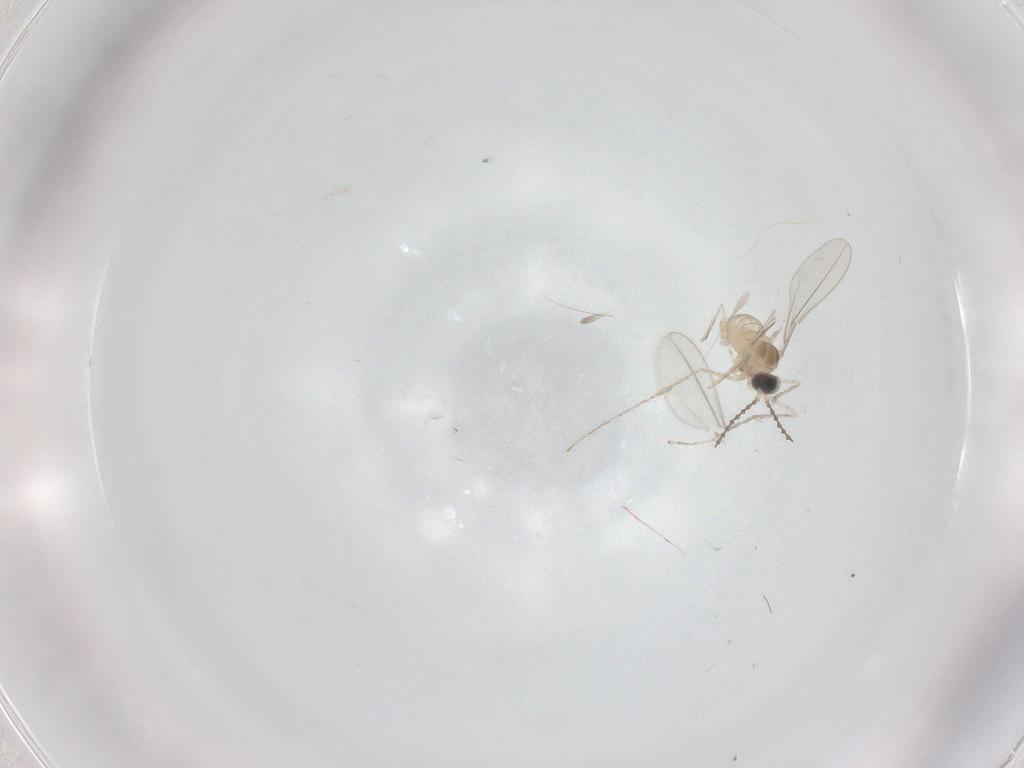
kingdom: Animalia
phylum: Arthropoda
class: Insecta
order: Diptera
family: Cecidomyiidae
